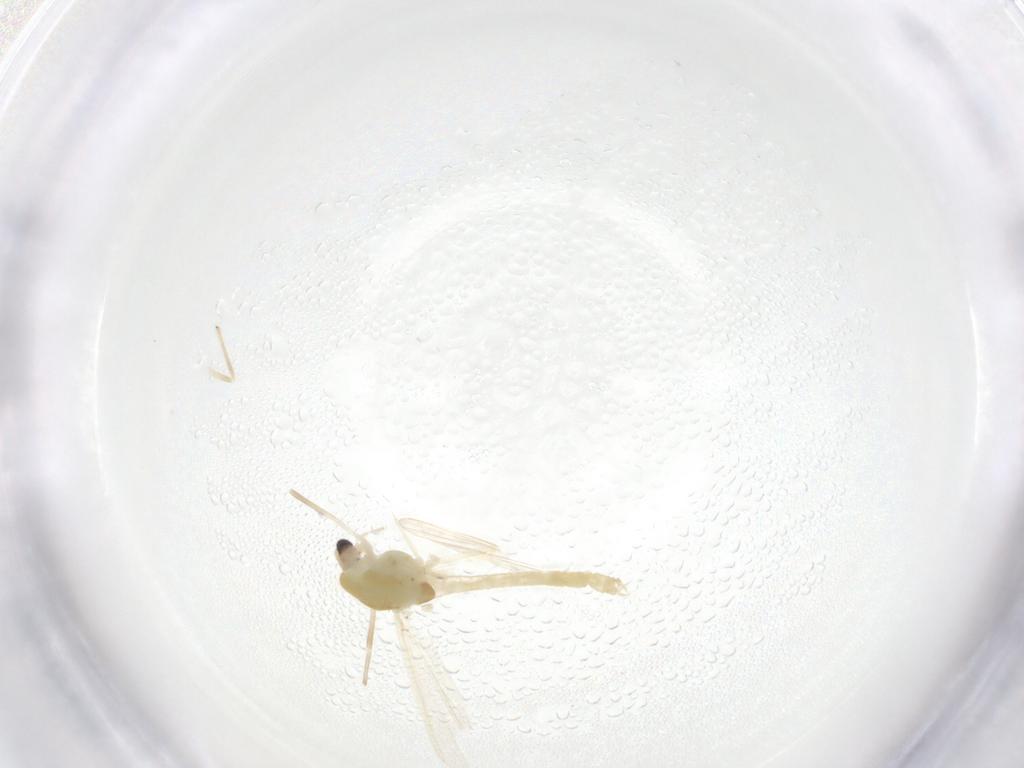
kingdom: Animalia
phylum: Arthropoda
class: Insecta
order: Diptera
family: Chironomidae
